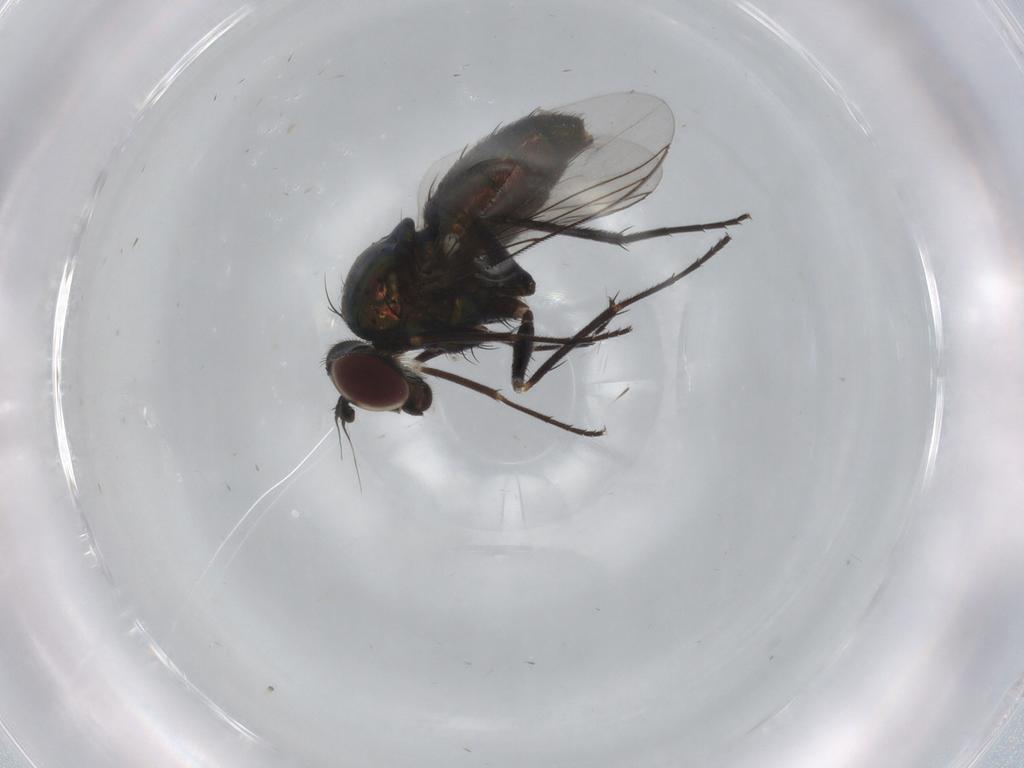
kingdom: Animalia
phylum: Arthropoda
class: Insecta
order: Diptera
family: Dolichopodidae
